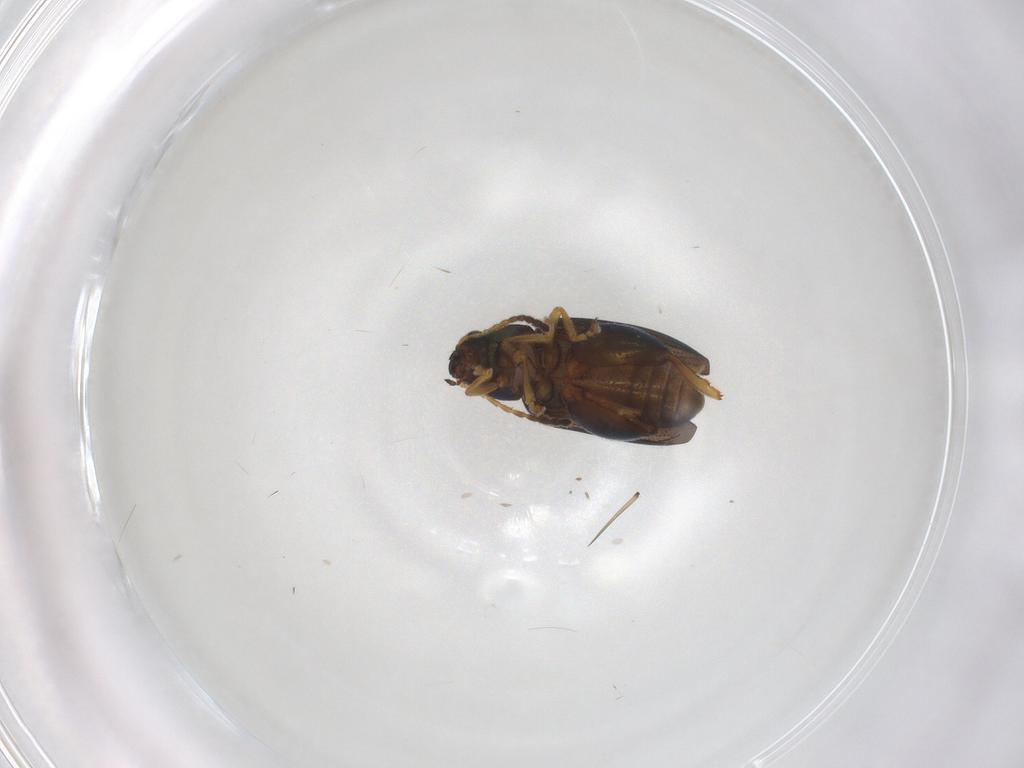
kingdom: Animalia
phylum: Arthropoda
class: Insecta
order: Coleoptera
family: Chrysomelidae
